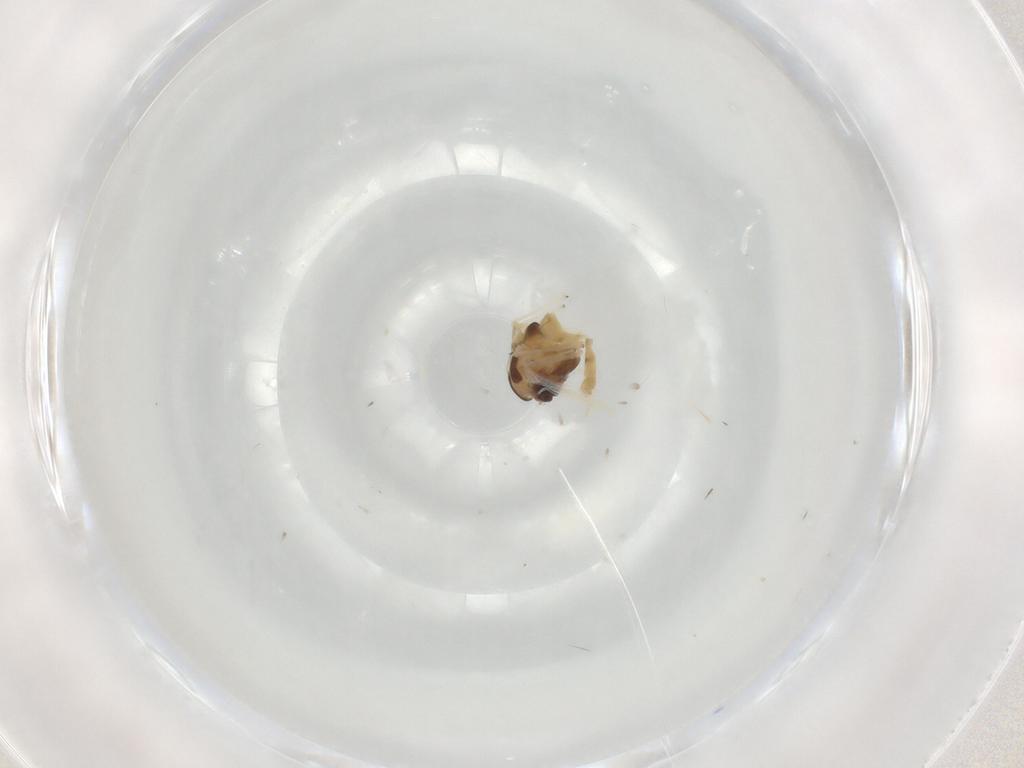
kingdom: Animalia
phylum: Arthropoda
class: Insecta
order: Diptera
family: Chironomidae
